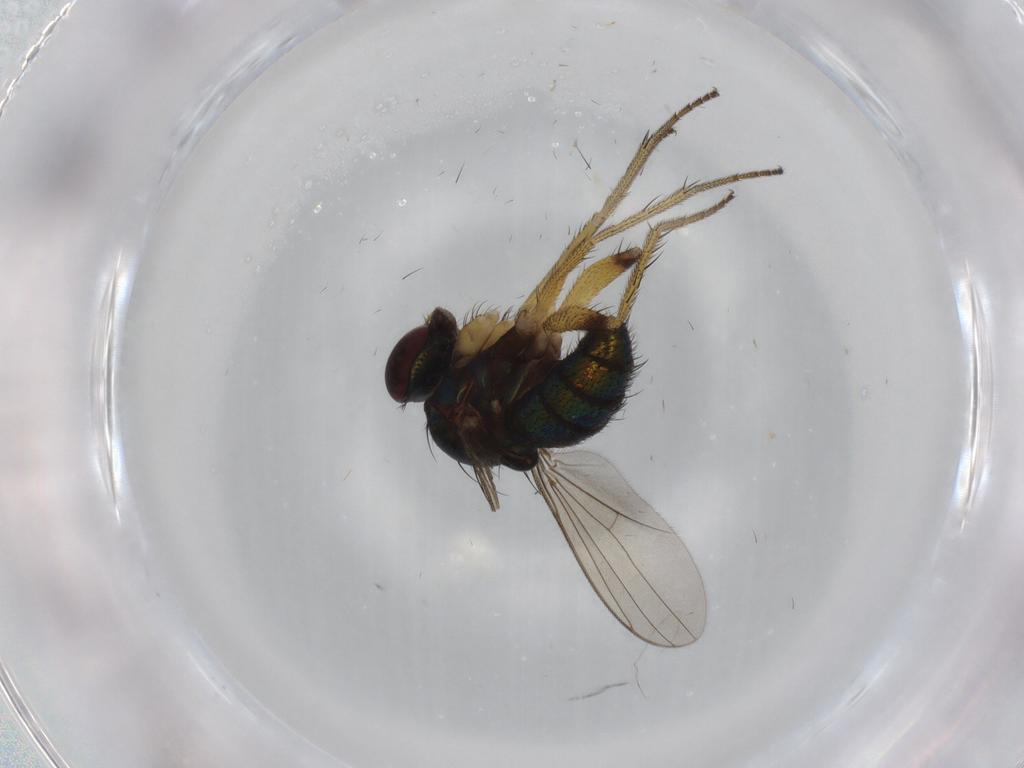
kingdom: Animalia
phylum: Arthropoda
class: Insecta
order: Diptera
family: Dolichopodidae
